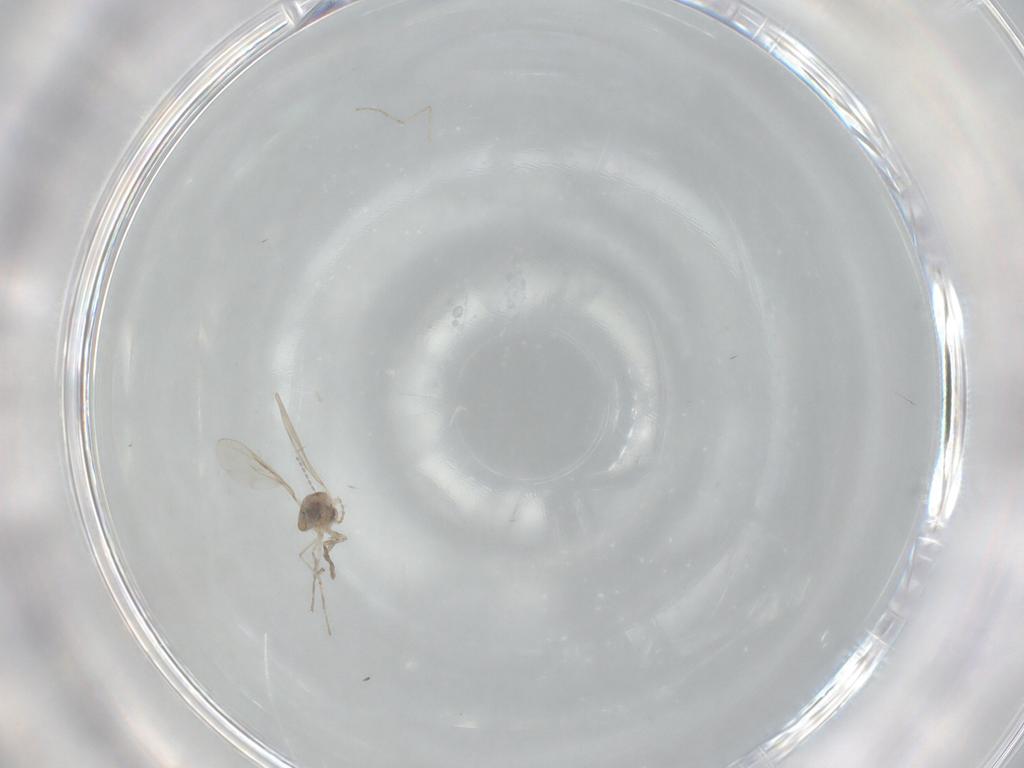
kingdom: Animalia
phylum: Arthropoda
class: Insecta
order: Diptera
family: Cecidomyiidae
